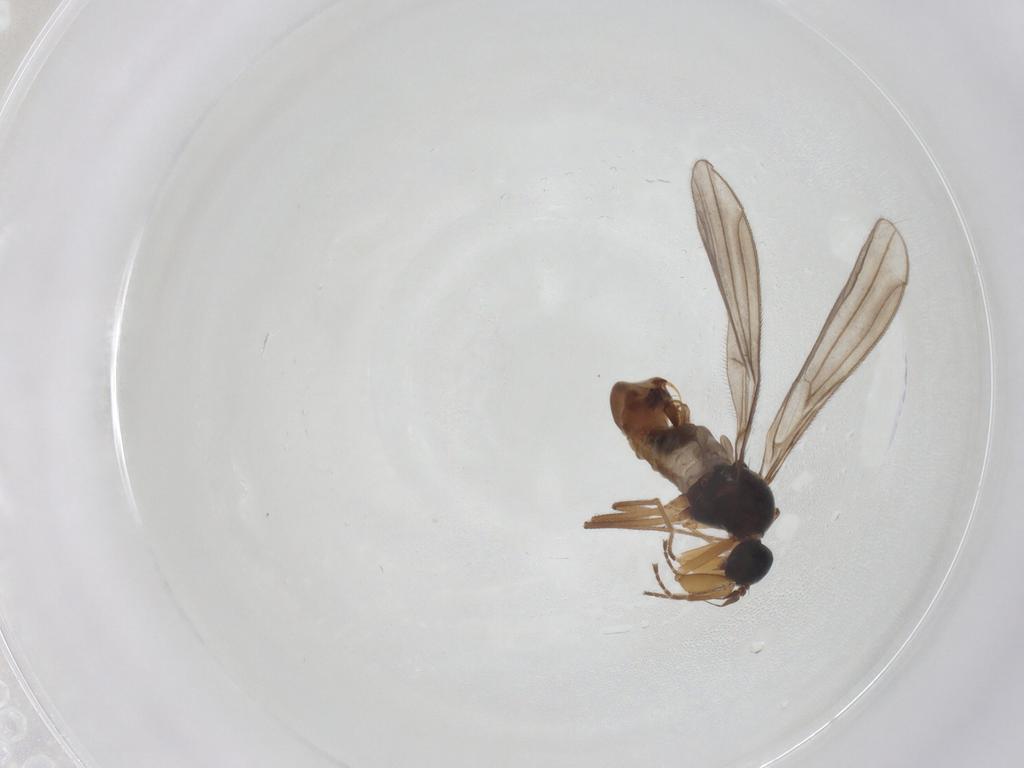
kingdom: Animalia
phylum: Arthropoda
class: Insecta
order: Diptera
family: Empididae
